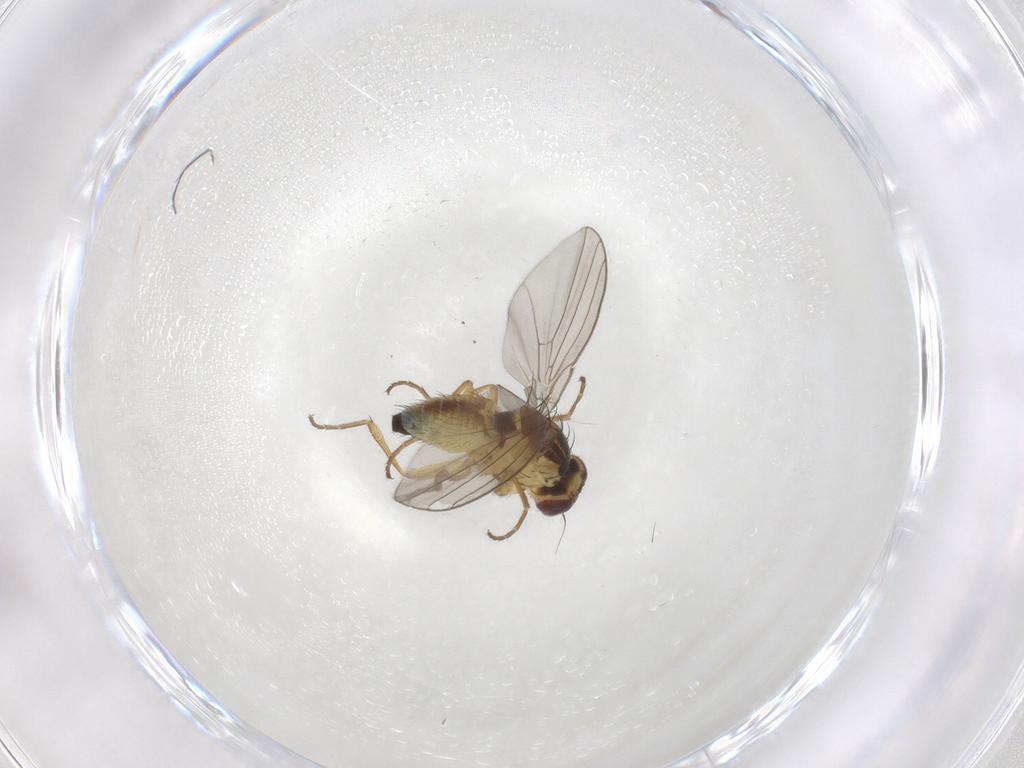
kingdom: Animalia
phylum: Arthropoda
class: Insecta
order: Diptera
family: Agromyzidae
